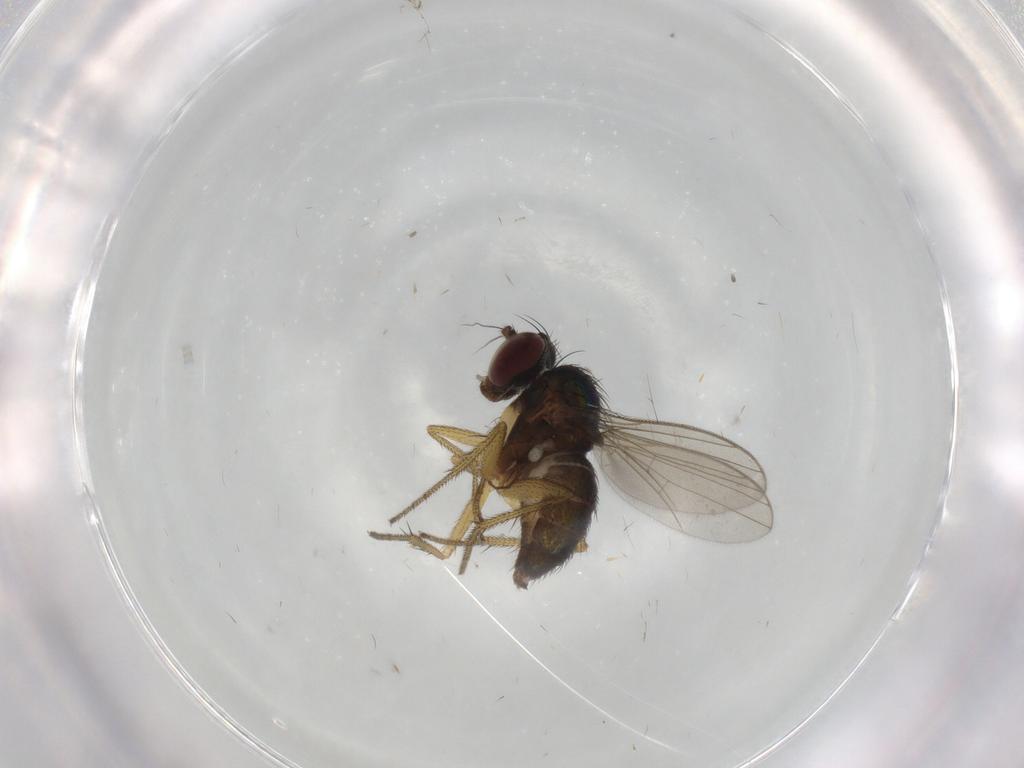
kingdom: Animalia
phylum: Arthropoda
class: Insecta
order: Diptera
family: Dolichopodidae
